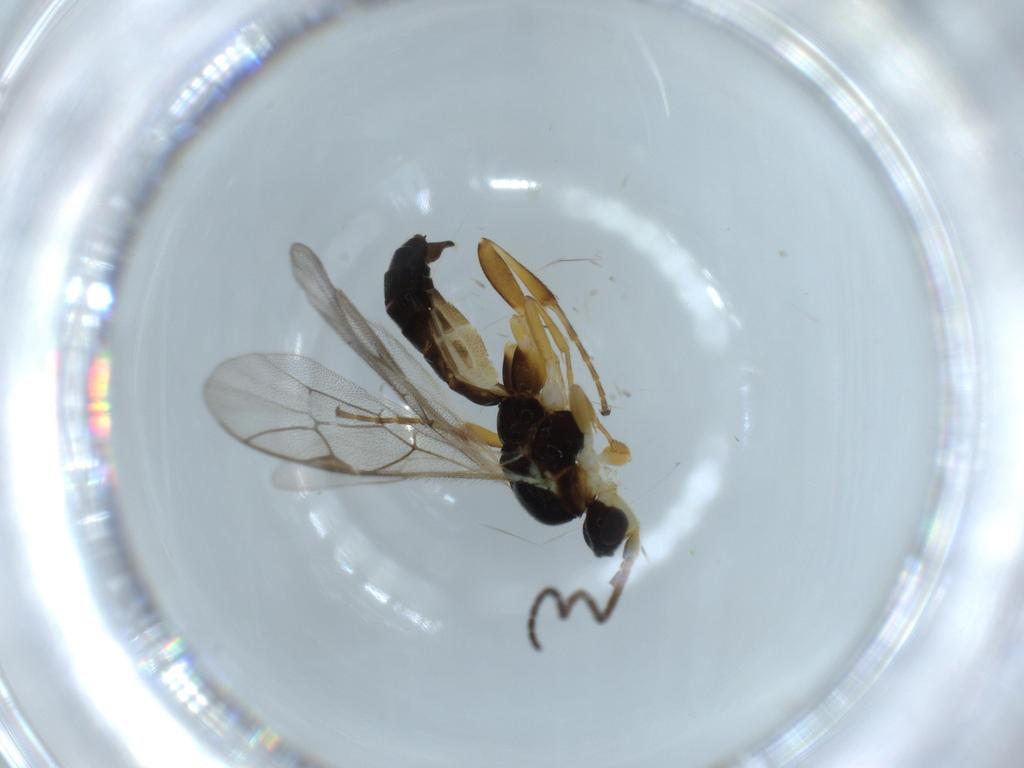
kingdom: Animalia
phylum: Arthropoda
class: Insecta
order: Hymenoptera
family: Ichneumonidae
